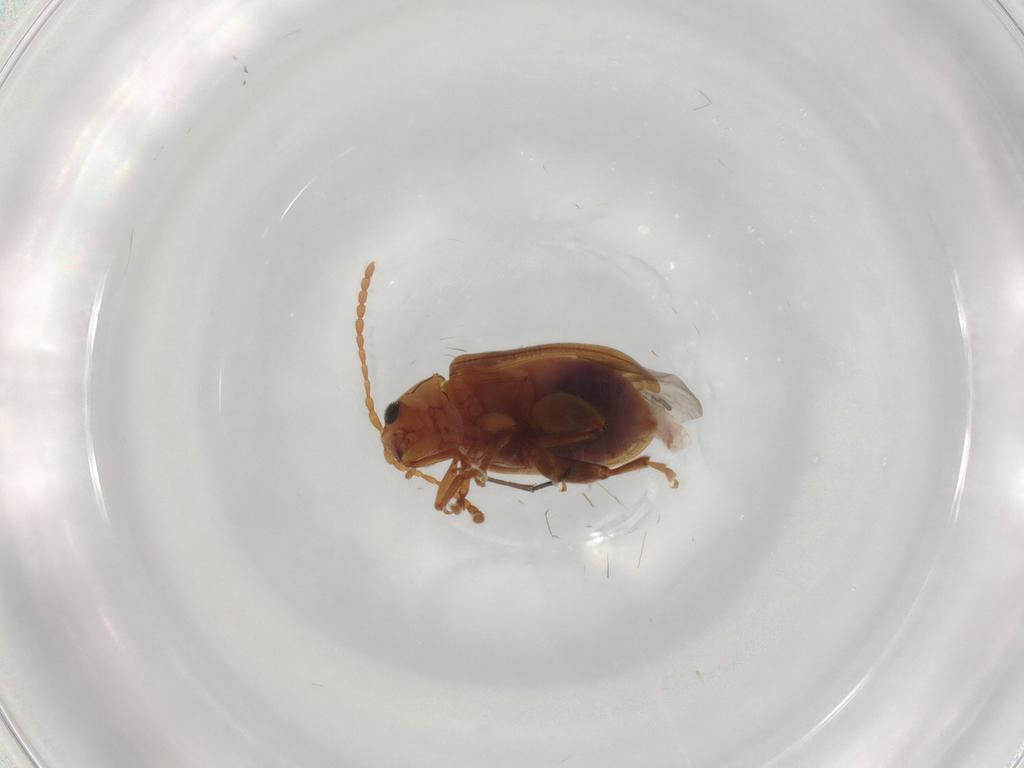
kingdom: Animalia
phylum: Arthropoda
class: Insecta
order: Coleoptera
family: Chrysomelidae
